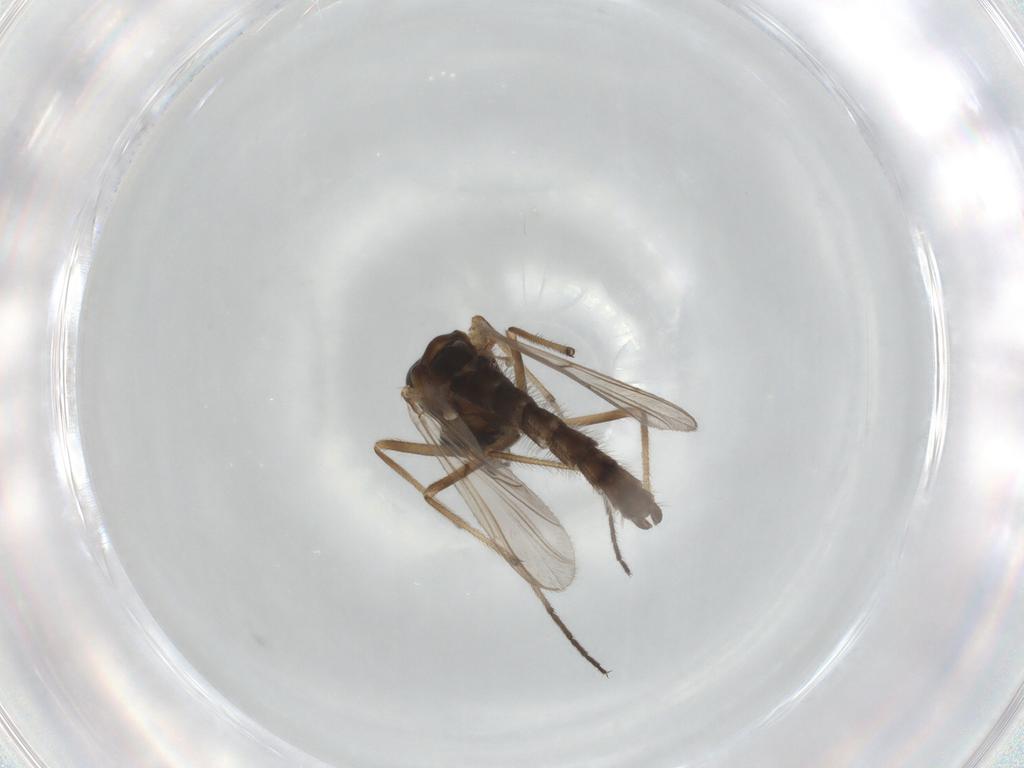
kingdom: Animalia
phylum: Arthropoda
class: Insecta
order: Diptera
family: Chironomidae
